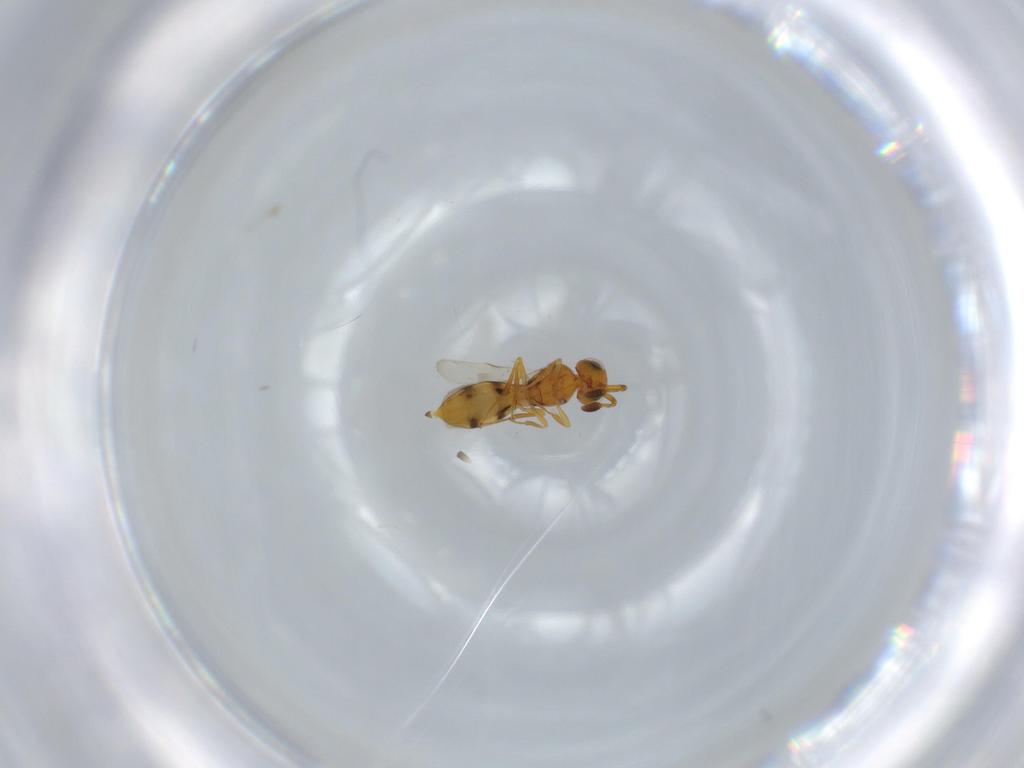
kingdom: Animalia
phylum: Arthropoda
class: Insecta
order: Hymenoptera
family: Scelionidae
